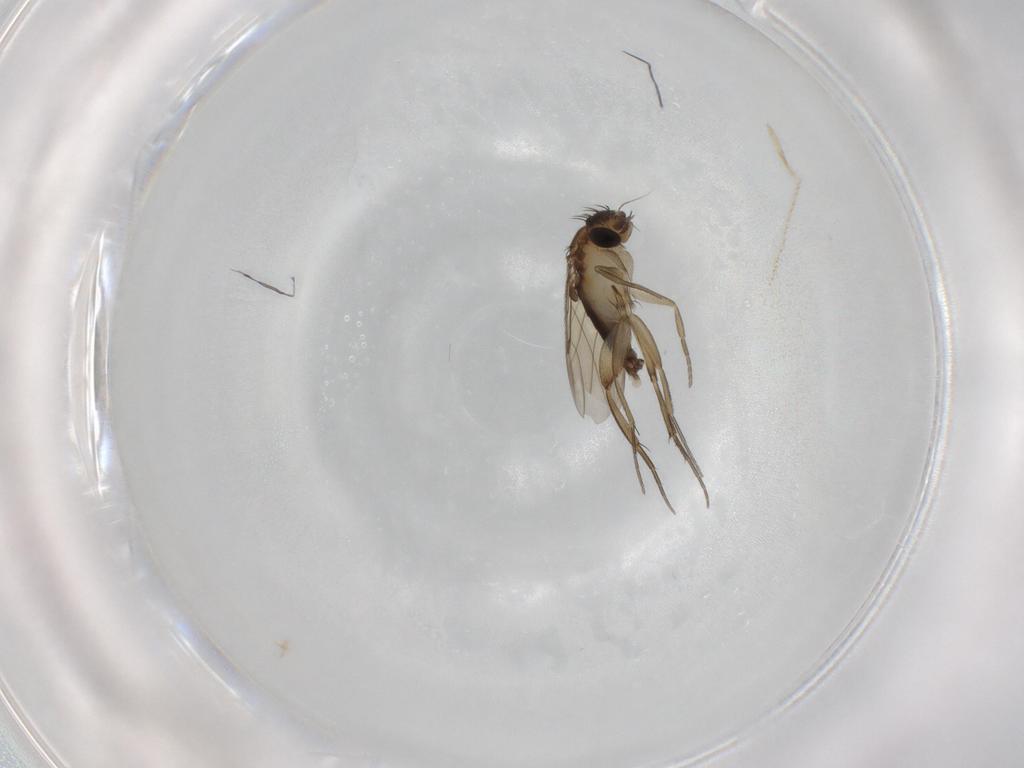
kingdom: Animalia
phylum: Arthropoda
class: Insecta
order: Diptera
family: Phoridae
